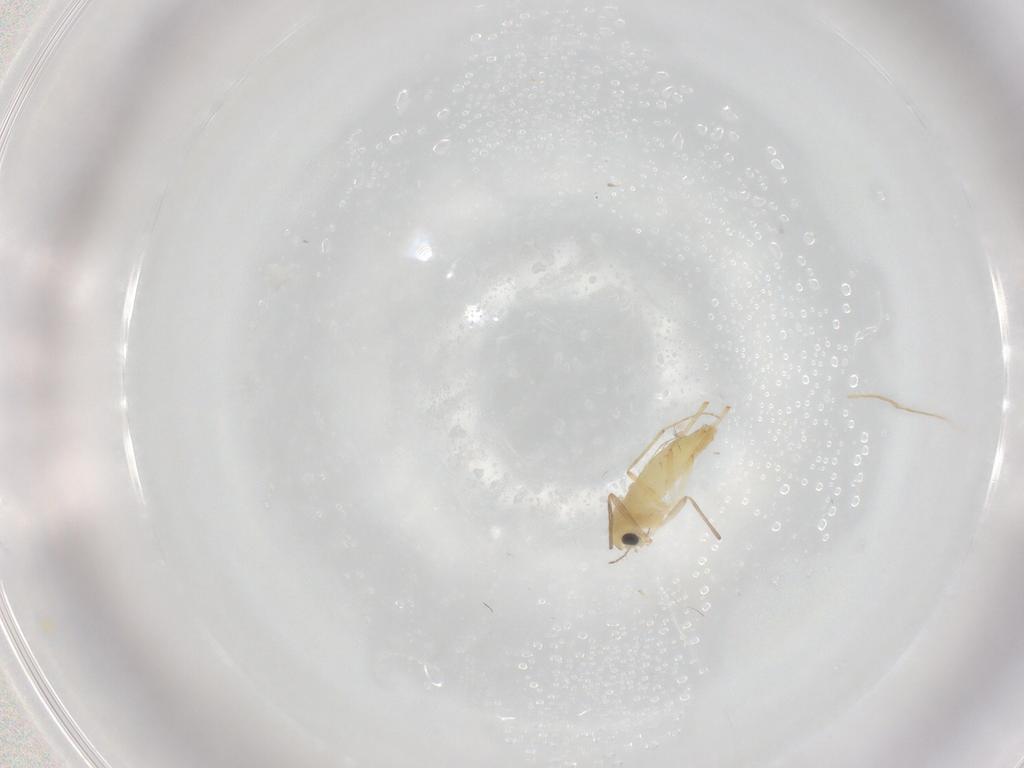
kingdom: Animalia
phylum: Arthropoda
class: Insecta
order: Diptera
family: Chironomidae
